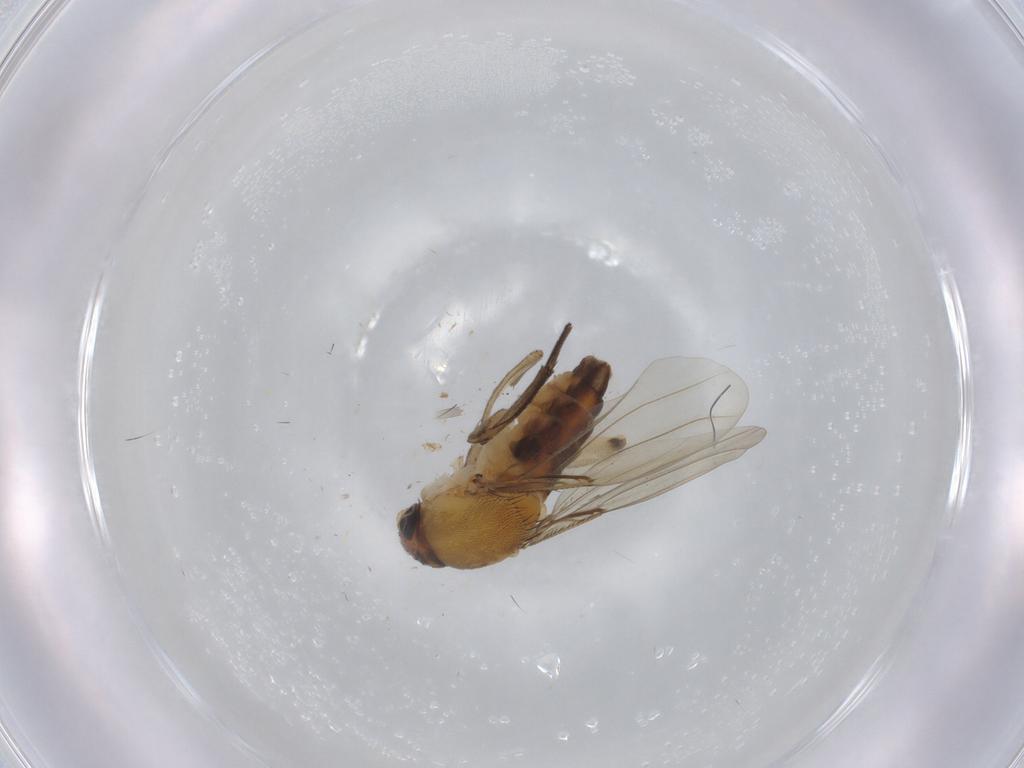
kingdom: Animalia
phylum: Arthropoda
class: Insecta
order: Diptera
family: Phoridae
